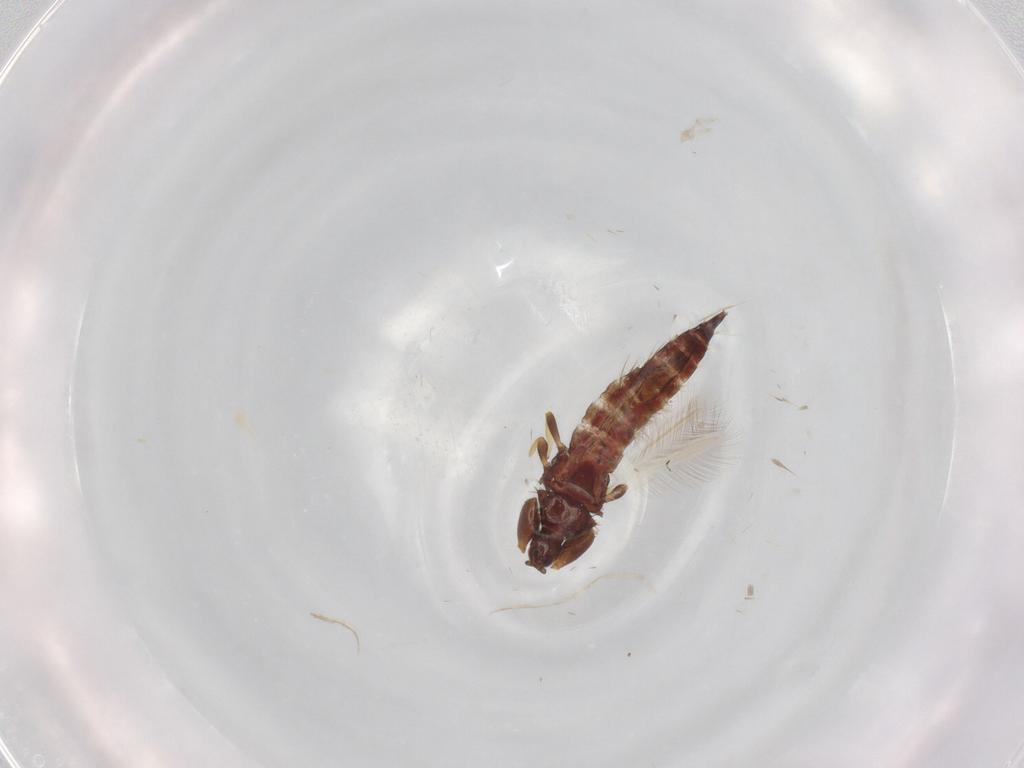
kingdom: Animalia
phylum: Arthropoda
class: Insecta
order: Thysanoptera
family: Phlaeothripidae
